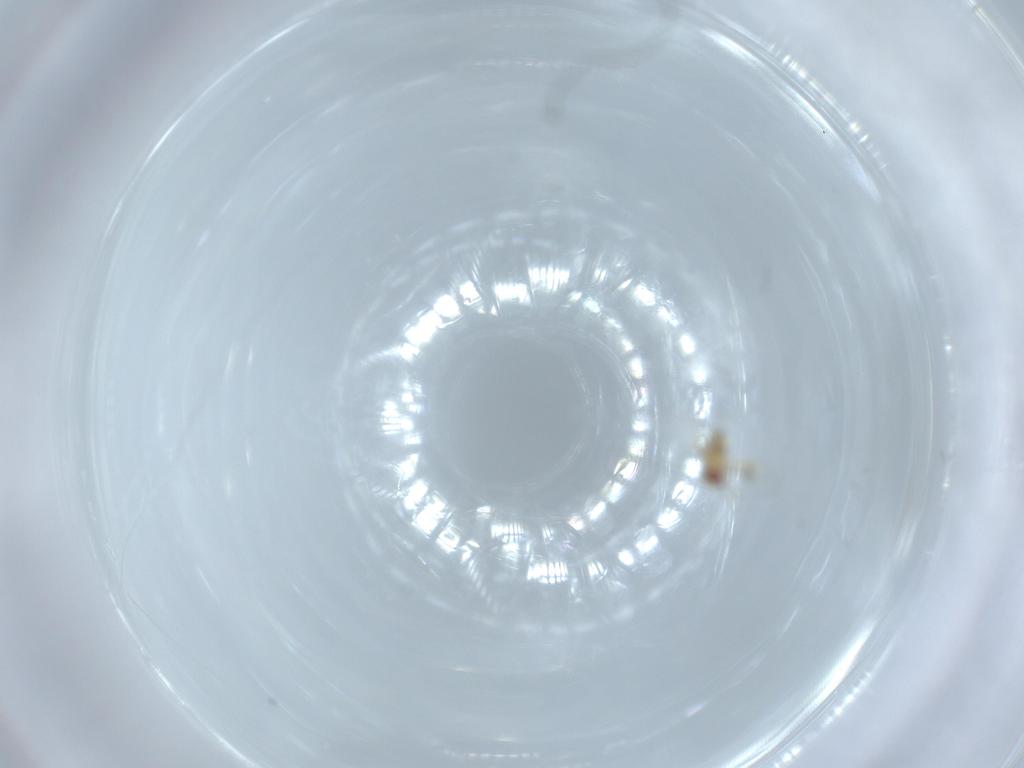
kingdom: Animalia
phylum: Arthropoda
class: Insecta
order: Hymenoptera
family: Trichogrammatidae
